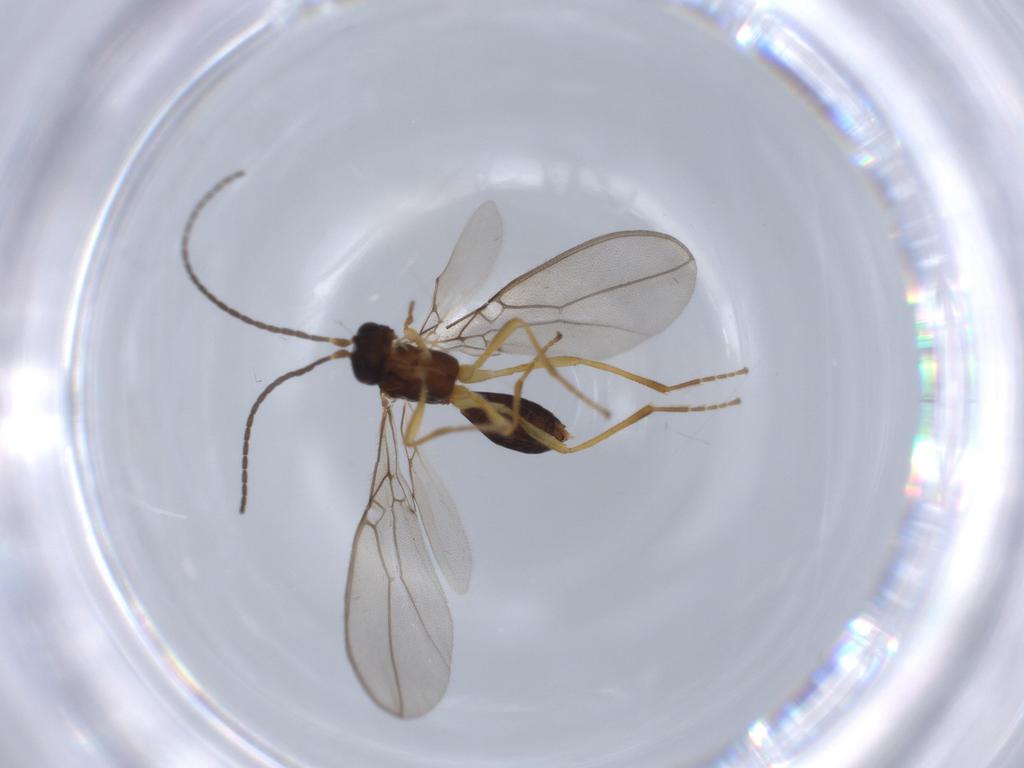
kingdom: Animalia
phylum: Arthropoda
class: Insecta
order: Hymenoptera
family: Braconidae
